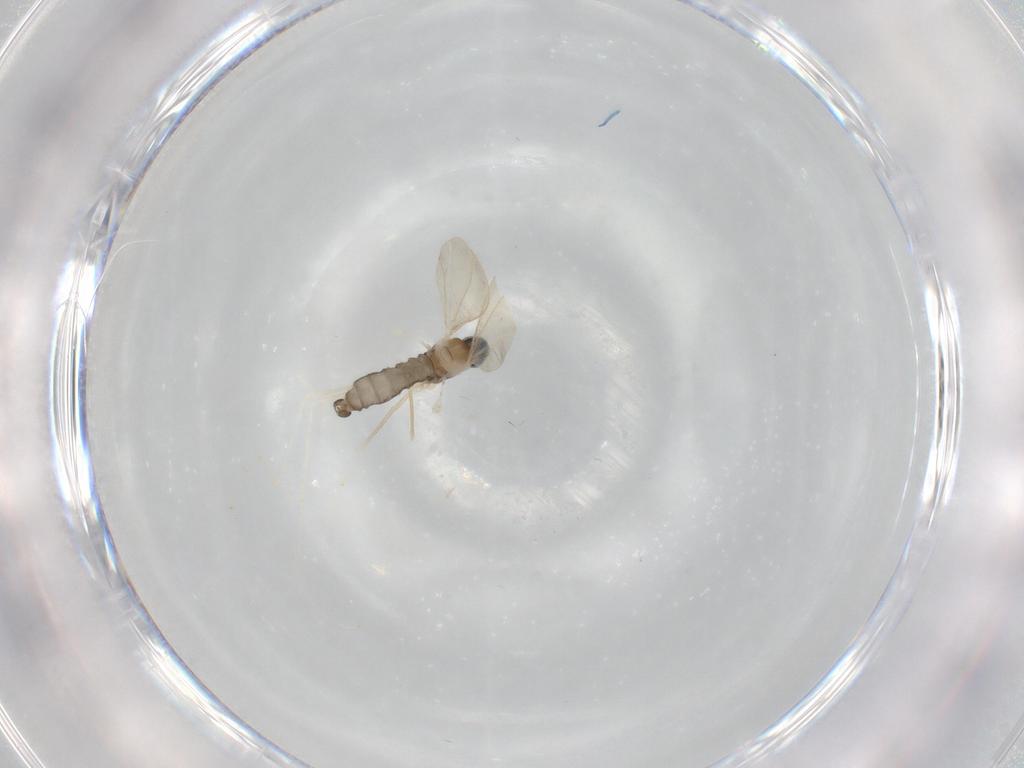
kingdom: Animalia
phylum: Arthropoda
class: Insecta
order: Diptera
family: Cecidomyiidae
